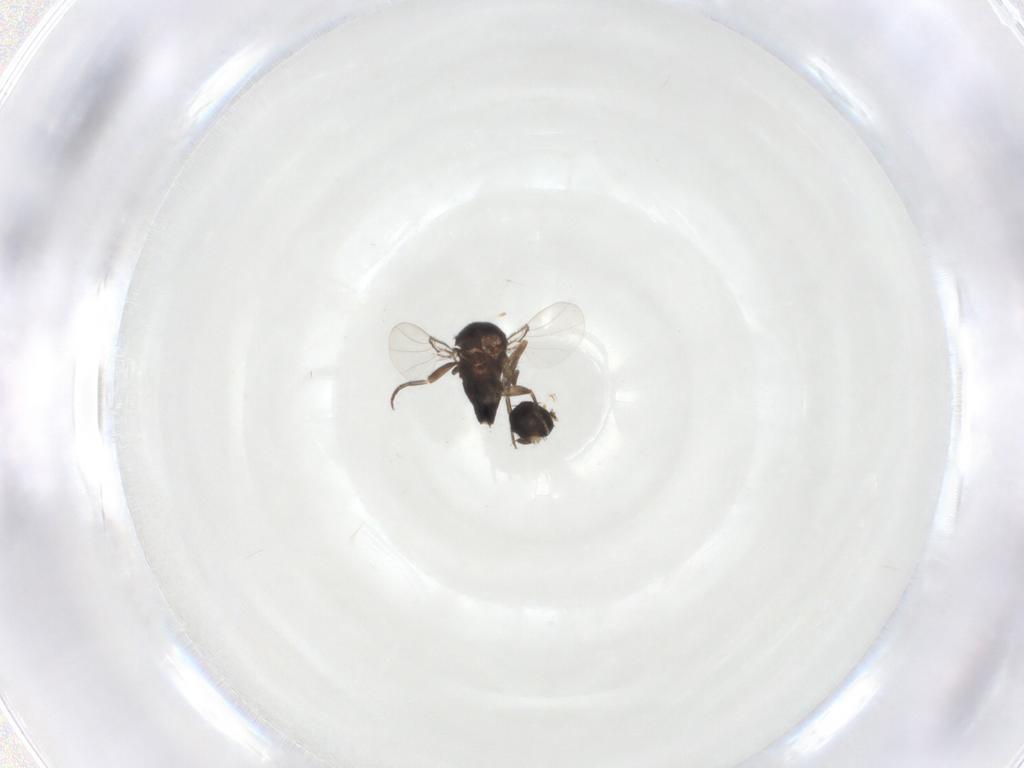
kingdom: Animalia
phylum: Arthropoda
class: Insecta
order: Diptera
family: Phoridae
